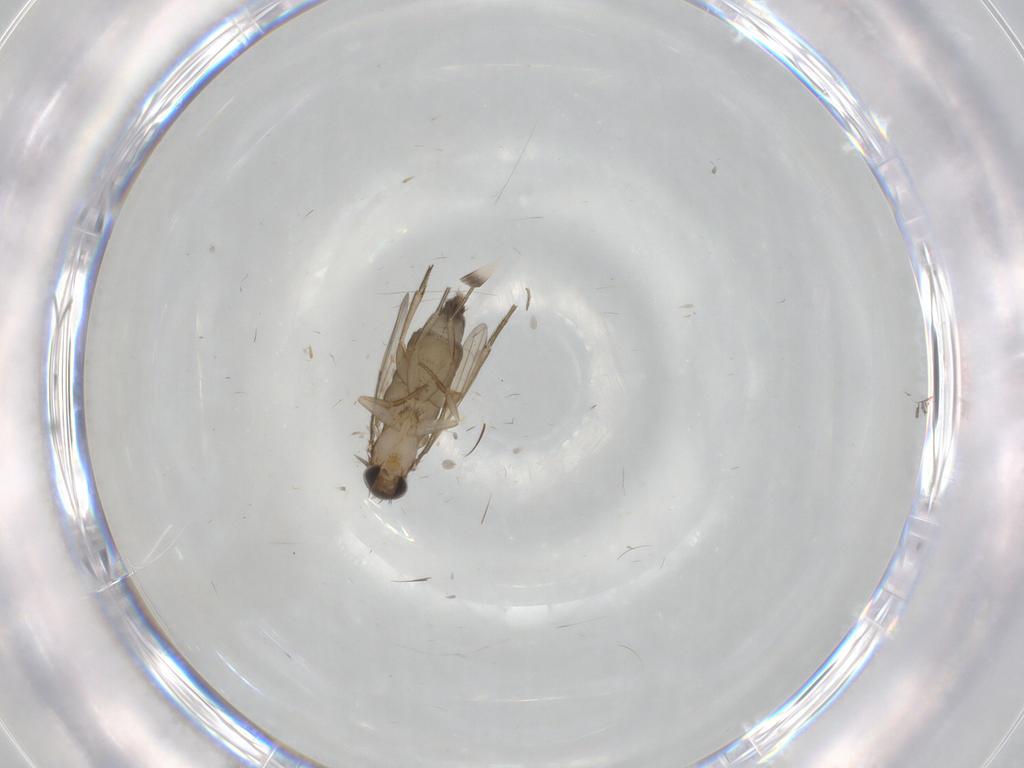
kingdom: Animalia
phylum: Arthropoda
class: Insecta
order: Diptera
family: Phoridae
